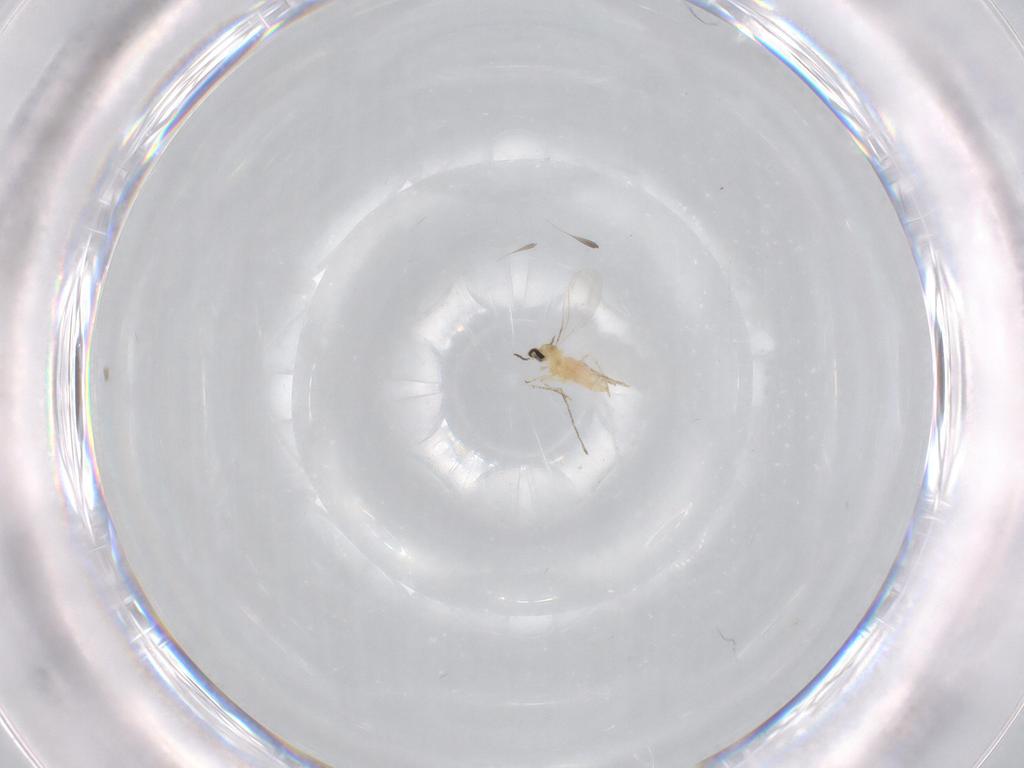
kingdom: Animalia
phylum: Arthropoda
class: Insecta
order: Diptera
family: Cecidomyiidae
